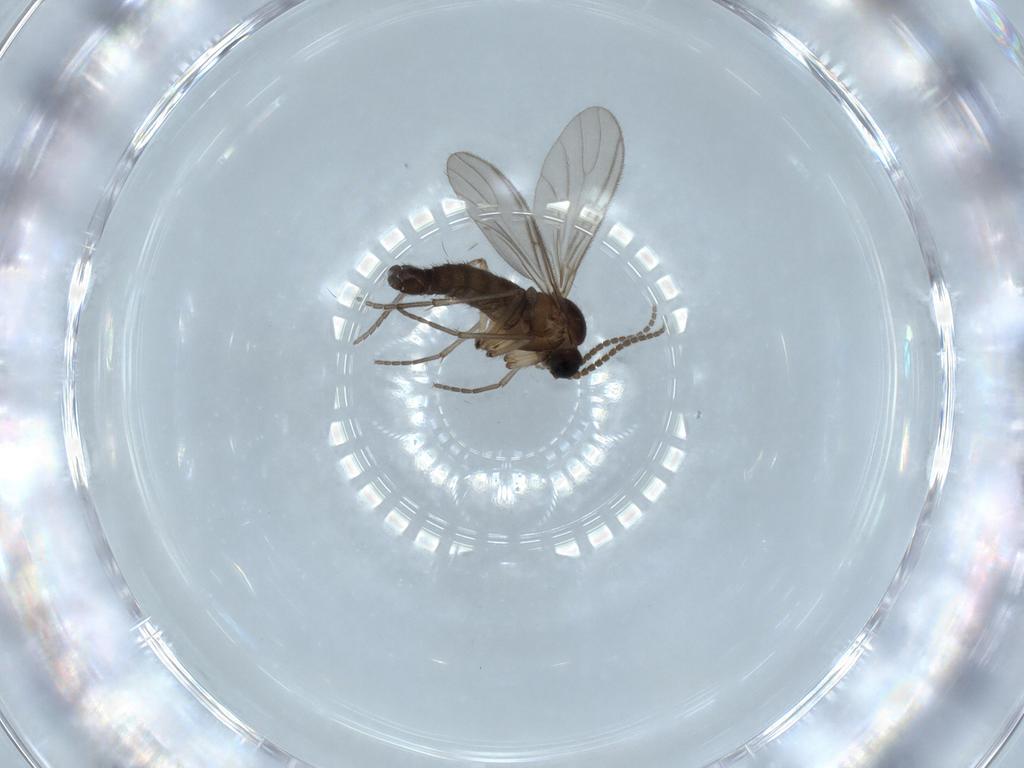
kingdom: Animalia
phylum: Arthropoda
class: Insecta
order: Diptera
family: Sciaridae
